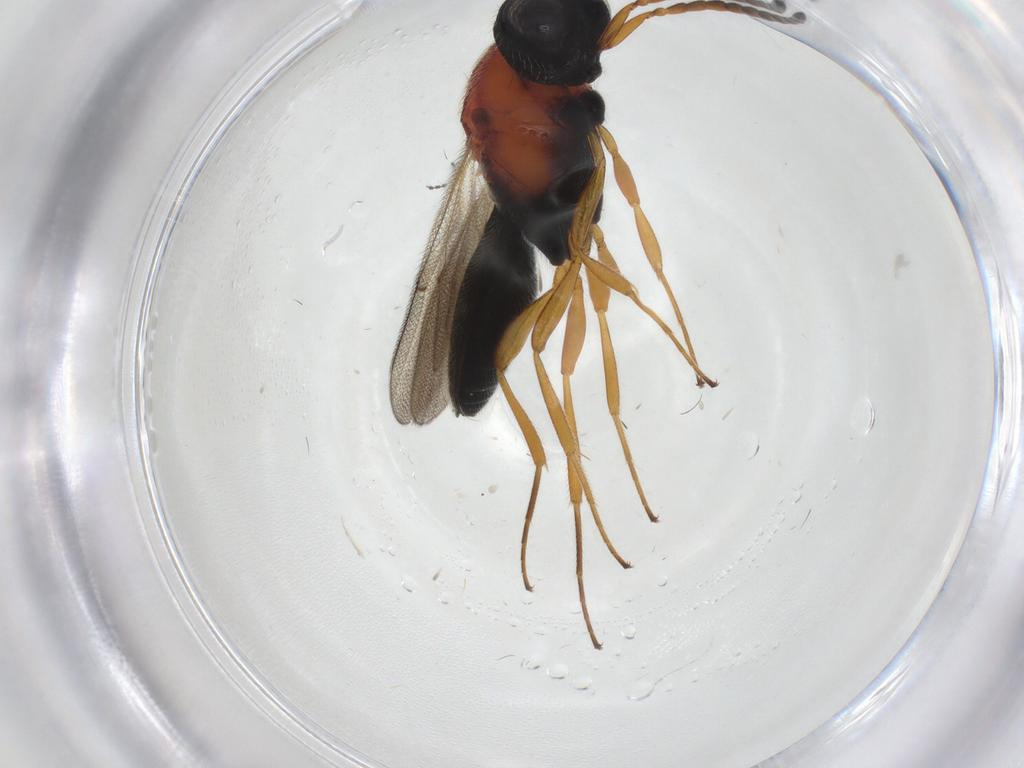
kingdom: Animalia
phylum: Arthropoda
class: Insecta
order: Hymenoptera
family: Scelionidae
